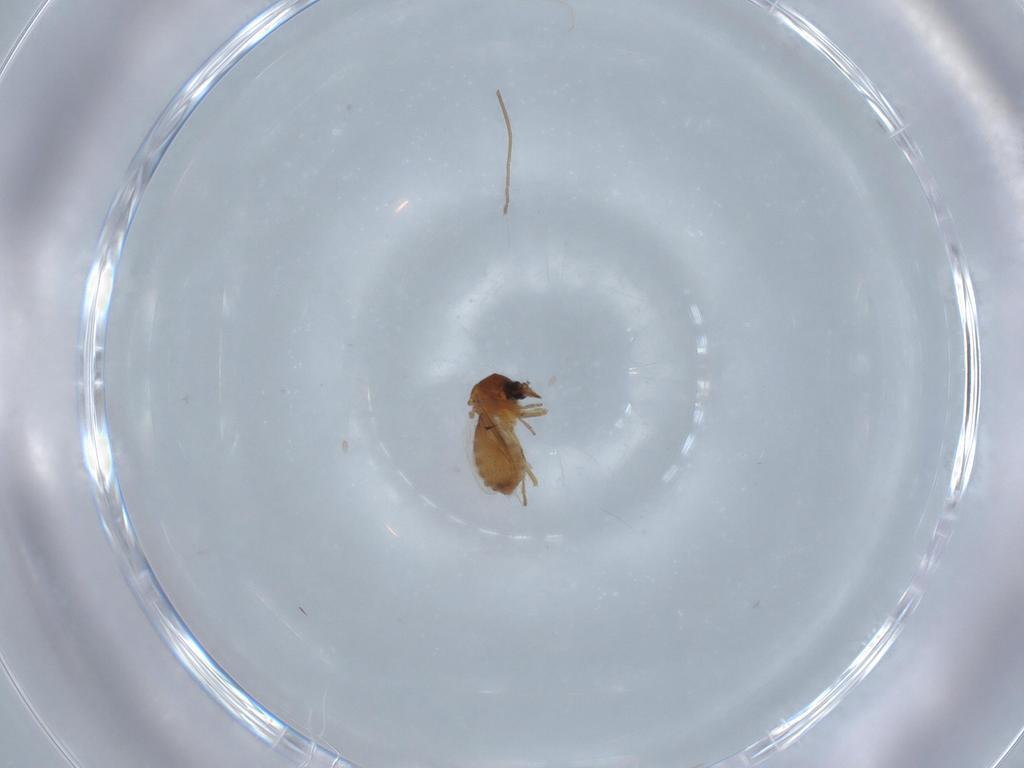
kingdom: Animalia
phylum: Arthropoda
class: Insecta
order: Diptera
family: Ceratopogonidae
